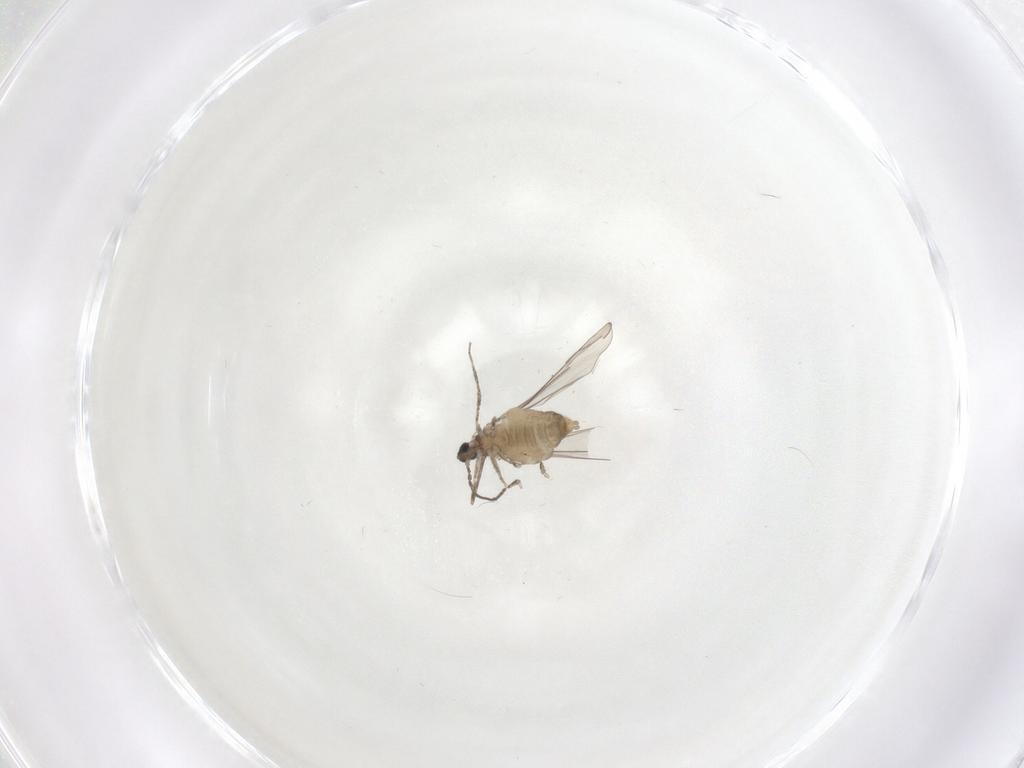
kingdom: Animalia
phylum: Arthropoda
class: Insecta
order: Diptera
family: Cecidomyiidae
